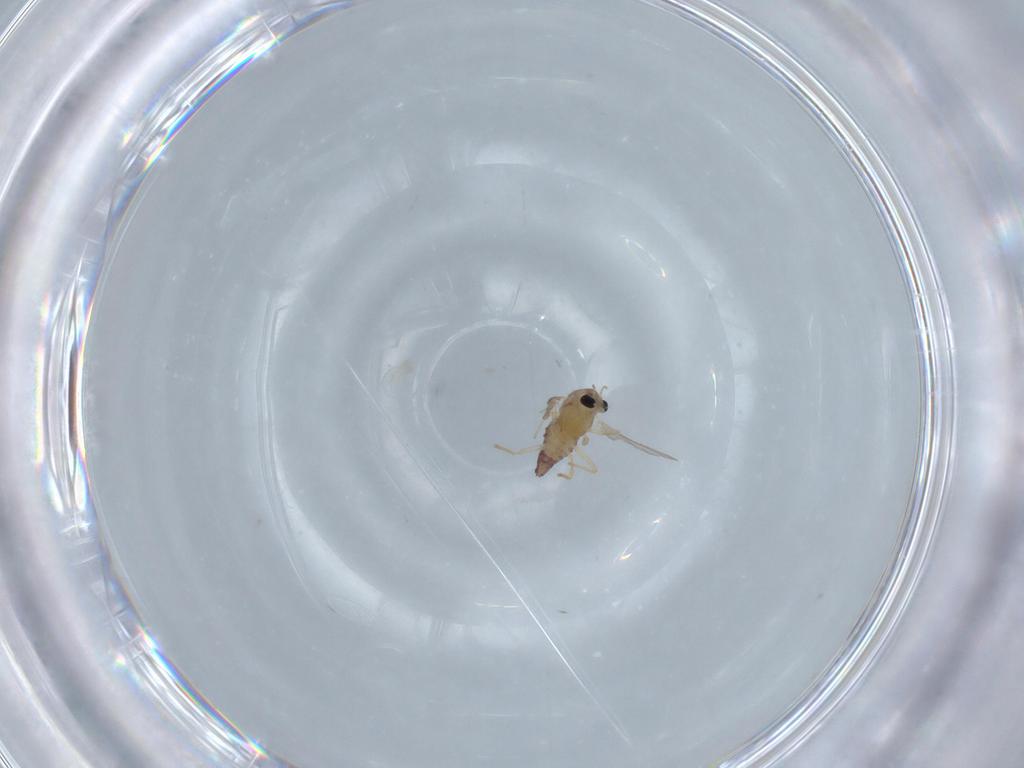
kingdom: Animalia
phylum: Arthropoda
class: Insecta
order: Diptera
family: Chironomidae
